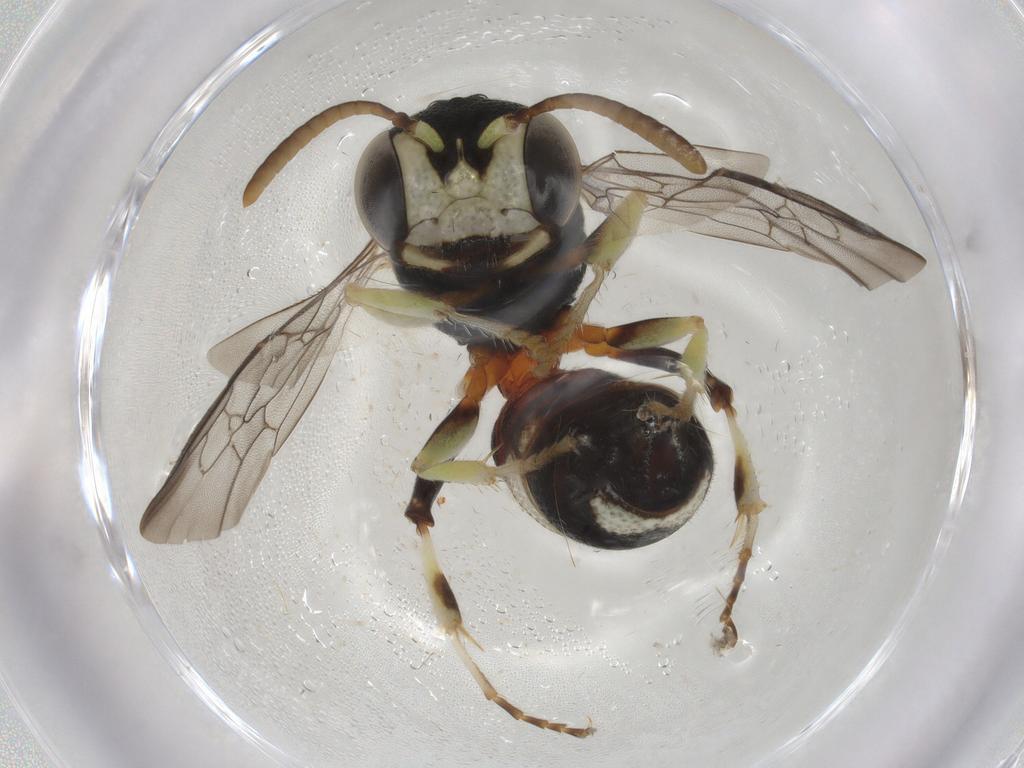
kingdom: Animalia
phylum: Arthropoda
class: Insecta
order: Hymenoptera
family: Crabronidae
